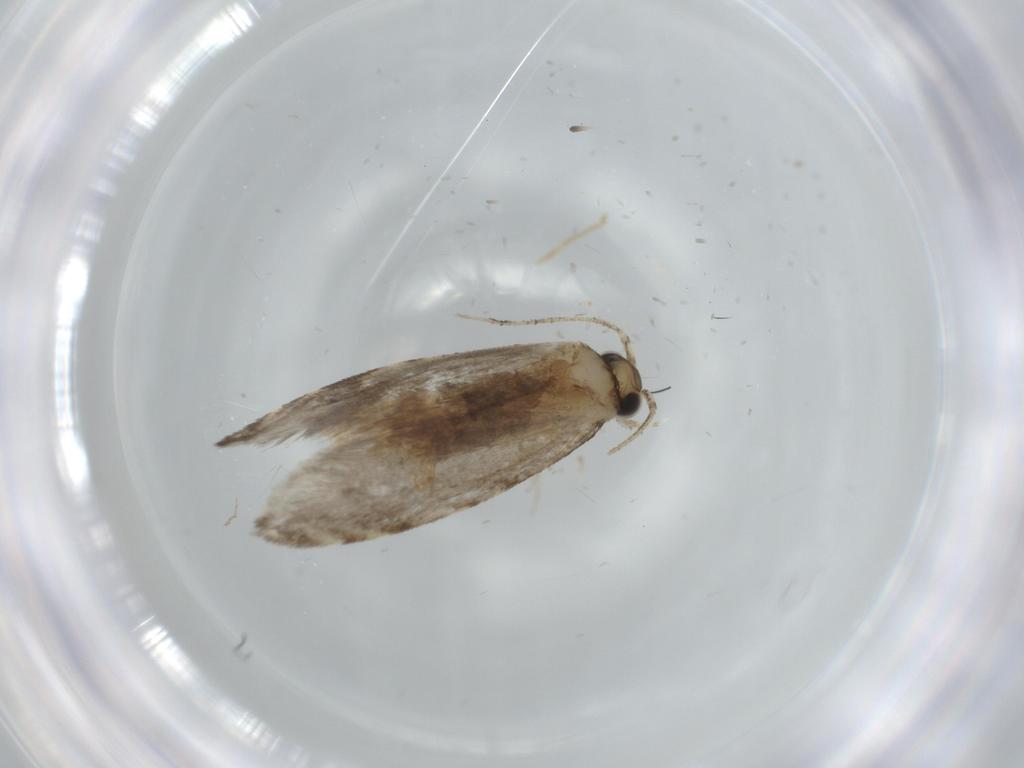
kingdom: Animalia
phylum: Arthropoda
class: Insecta
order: Lepidoptera
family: Tineidae
